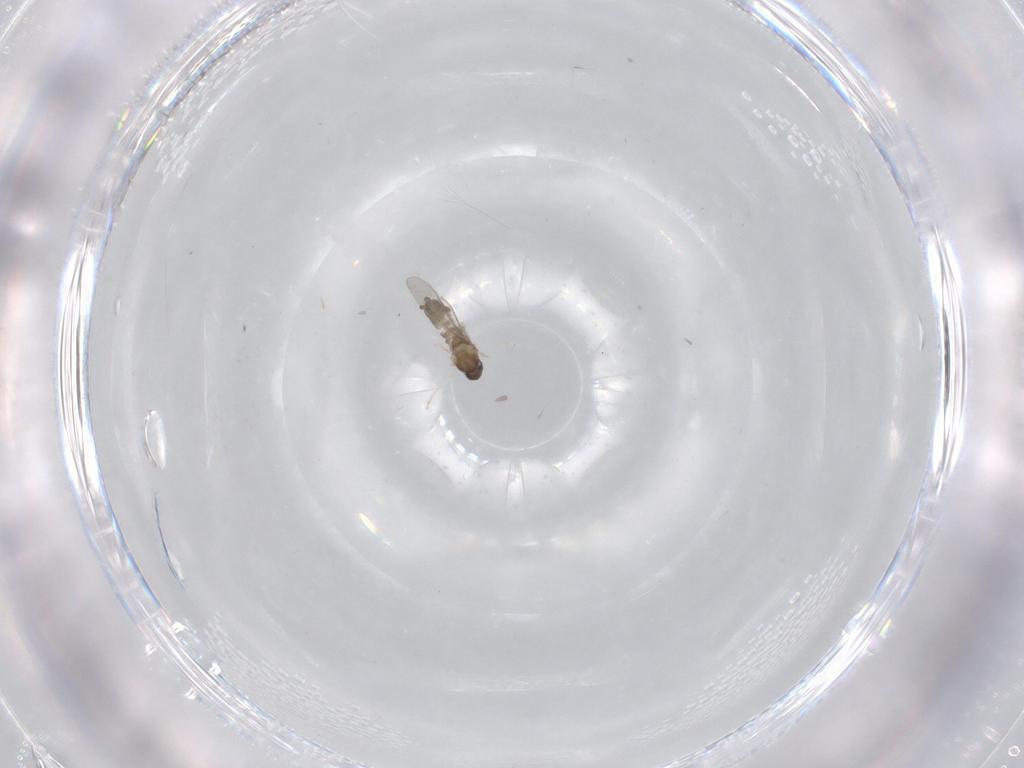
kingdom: Animalia
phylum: Arthropoda
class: Insecta
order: Diptera
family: Cecidomyiidae
